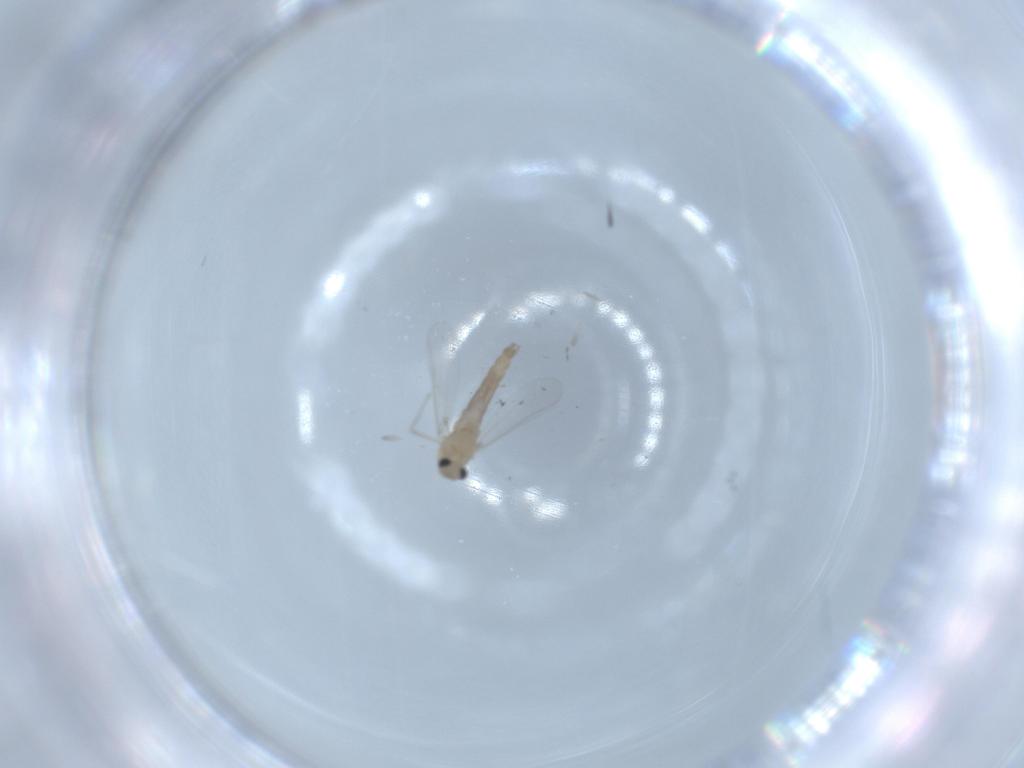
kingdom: Animalia
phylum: Arthropoda
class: Insecta
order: Diptera
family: Chironomidae
